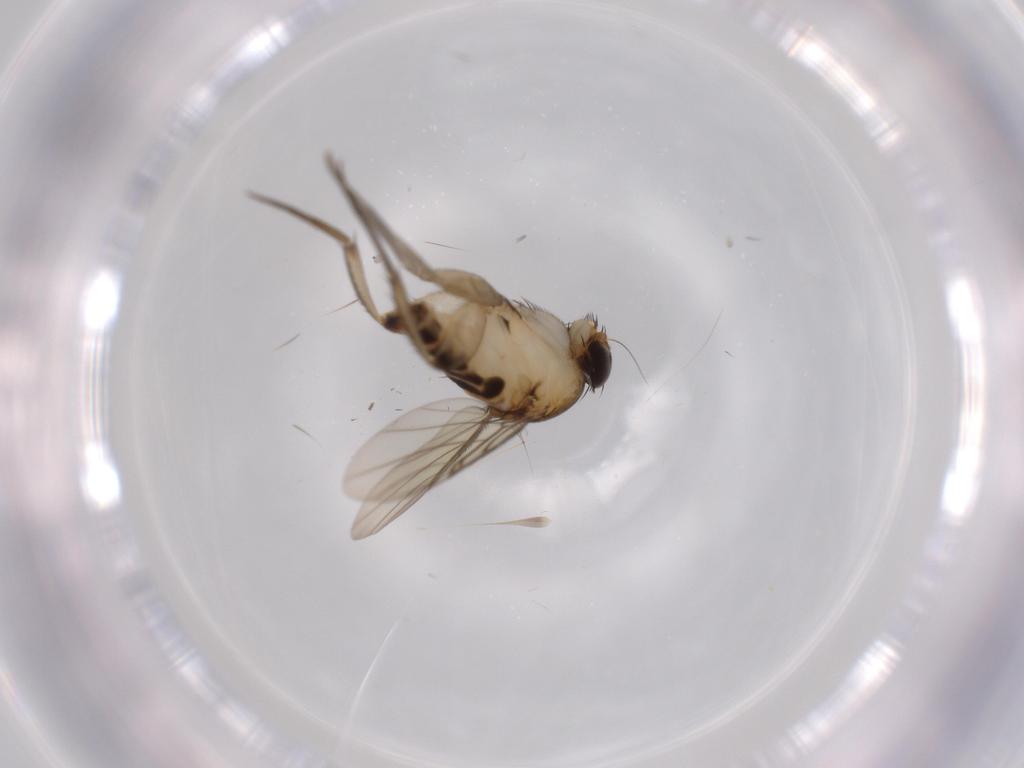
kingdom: Animalia
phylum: Arthropoda
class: Insecta
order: Diptera
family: Phoridae
